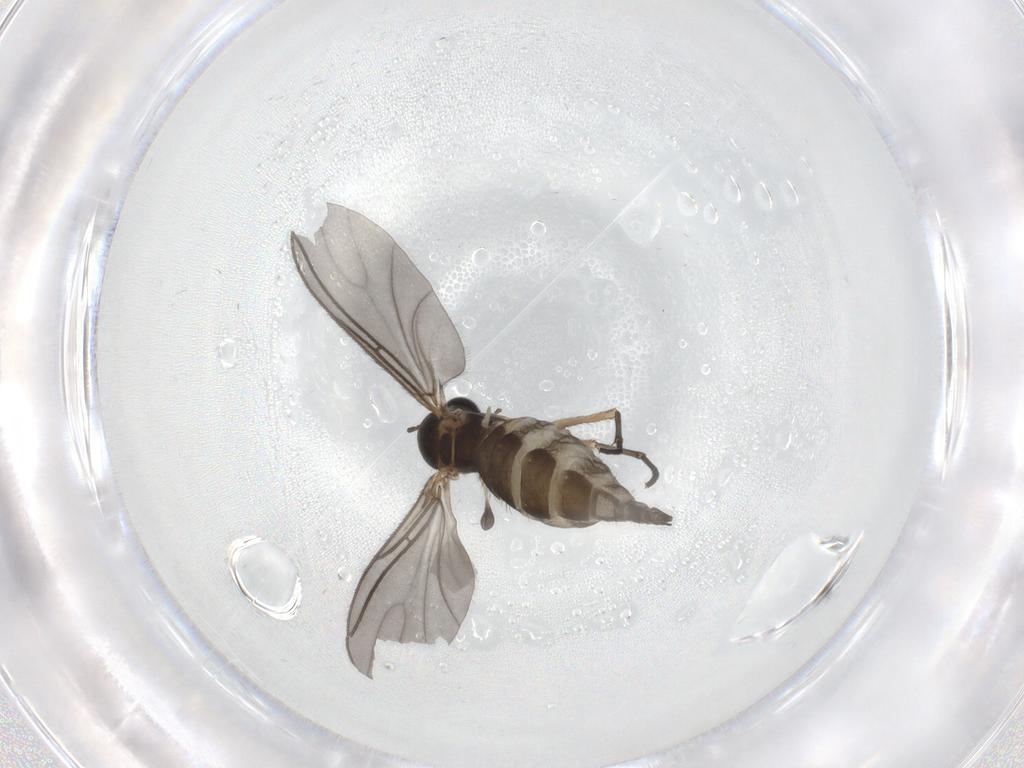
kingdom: Animalia
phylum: Arthropoda
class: Insecta
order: Diptera
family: Sciaridae
